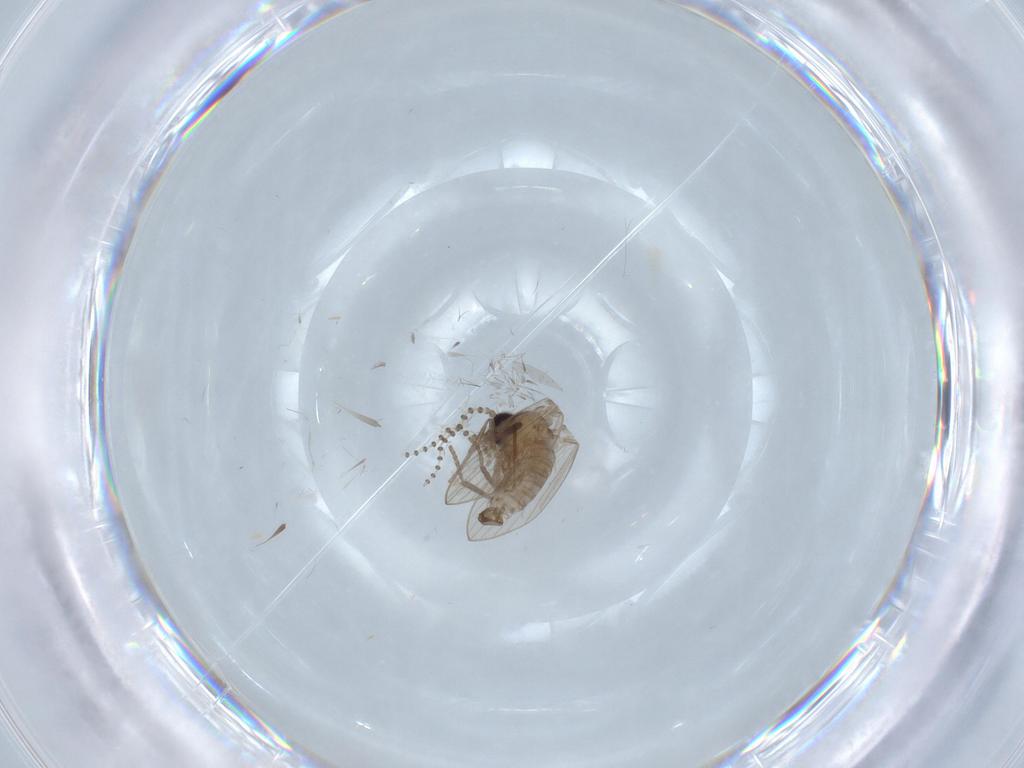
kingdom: Animalia
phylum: Arthropoda
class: Insecta
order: Diptera
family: Psychodidae
